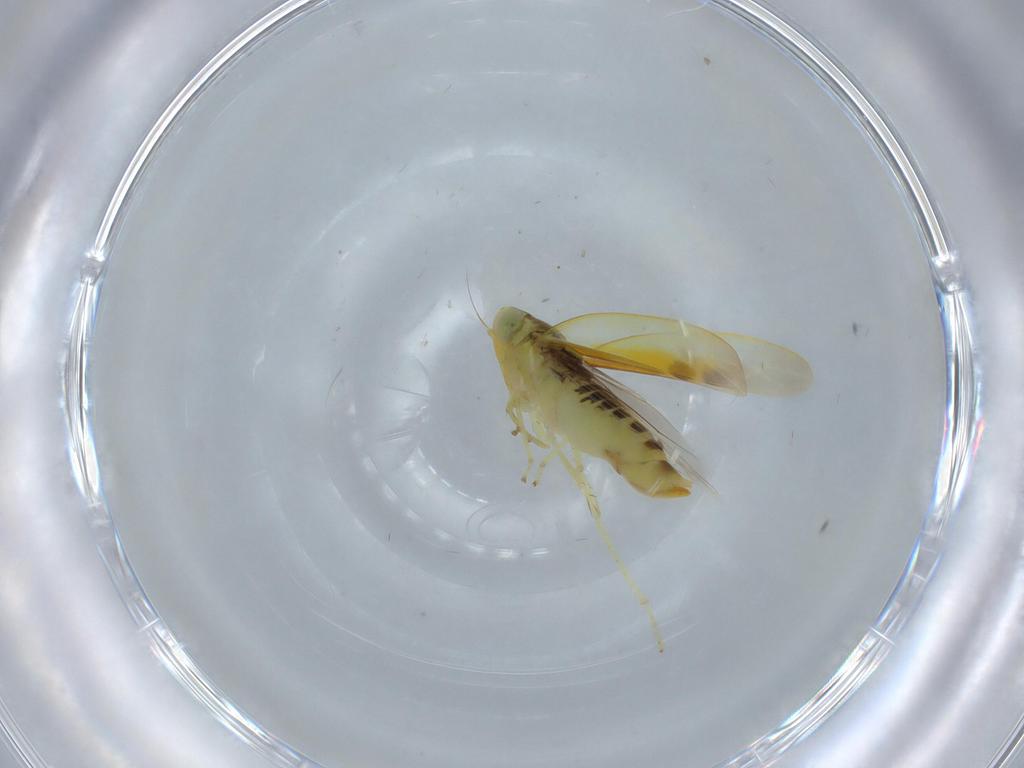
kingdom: Animalia
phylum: Arthropoda
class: Insecta
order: Hemiptera
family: Cicadellidae
